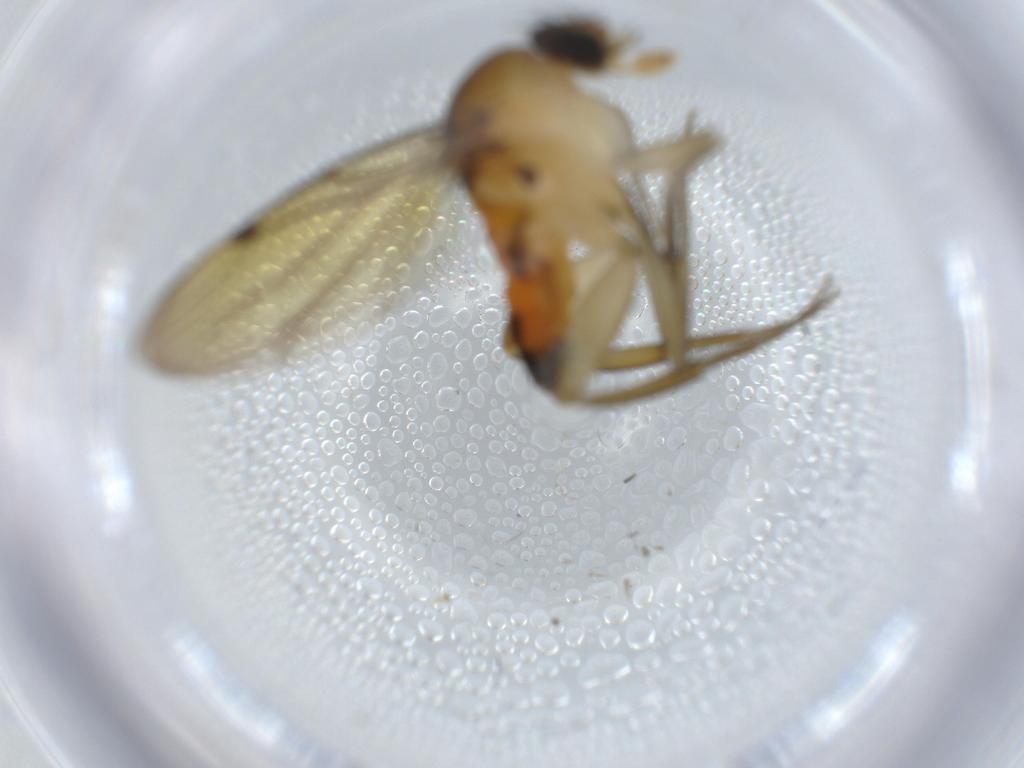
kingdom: Animalia
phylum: Arthropoda
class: Insecta
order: Diptera
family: Phoridae
